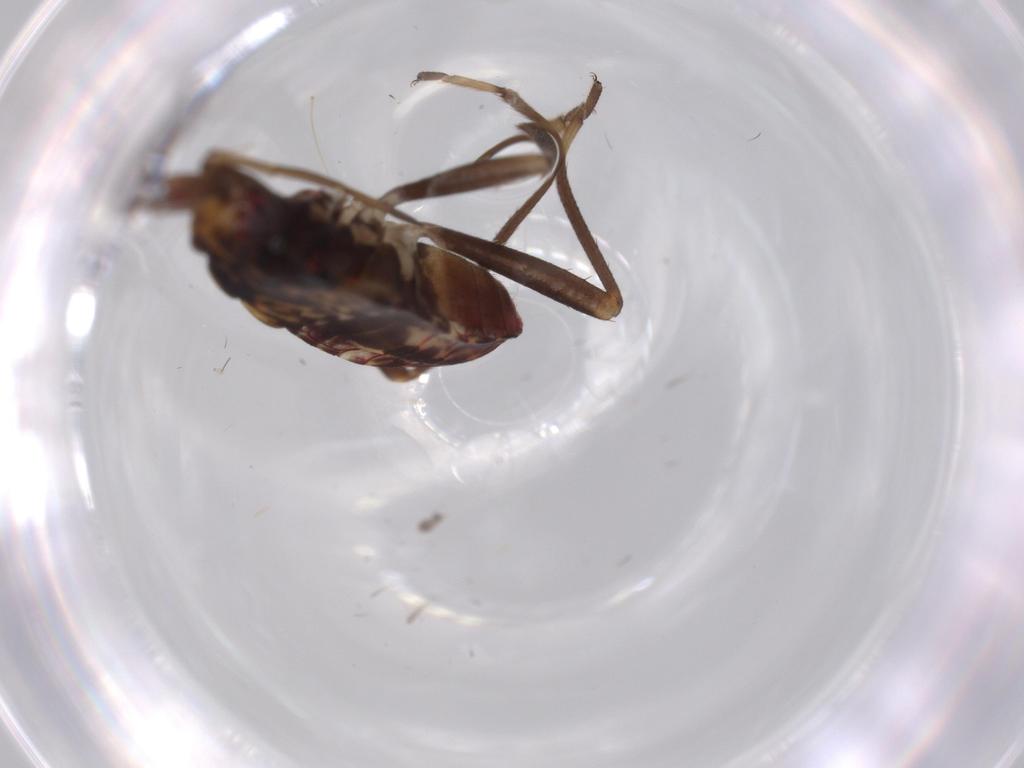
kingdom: Animalia
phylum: Arthropoda
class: Insecta
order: Hemiptera
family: Rhyparochromidae
